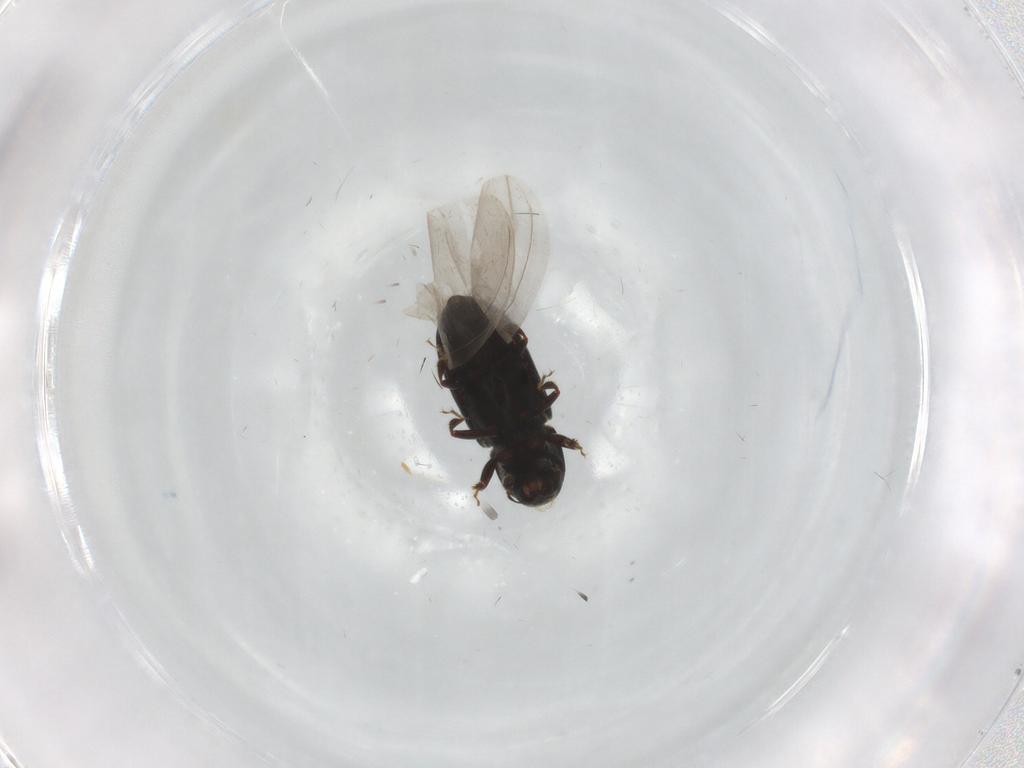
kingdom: Animalia
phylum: Arthropoda
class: Insecta
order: Coleoptera
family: Curculionidae
